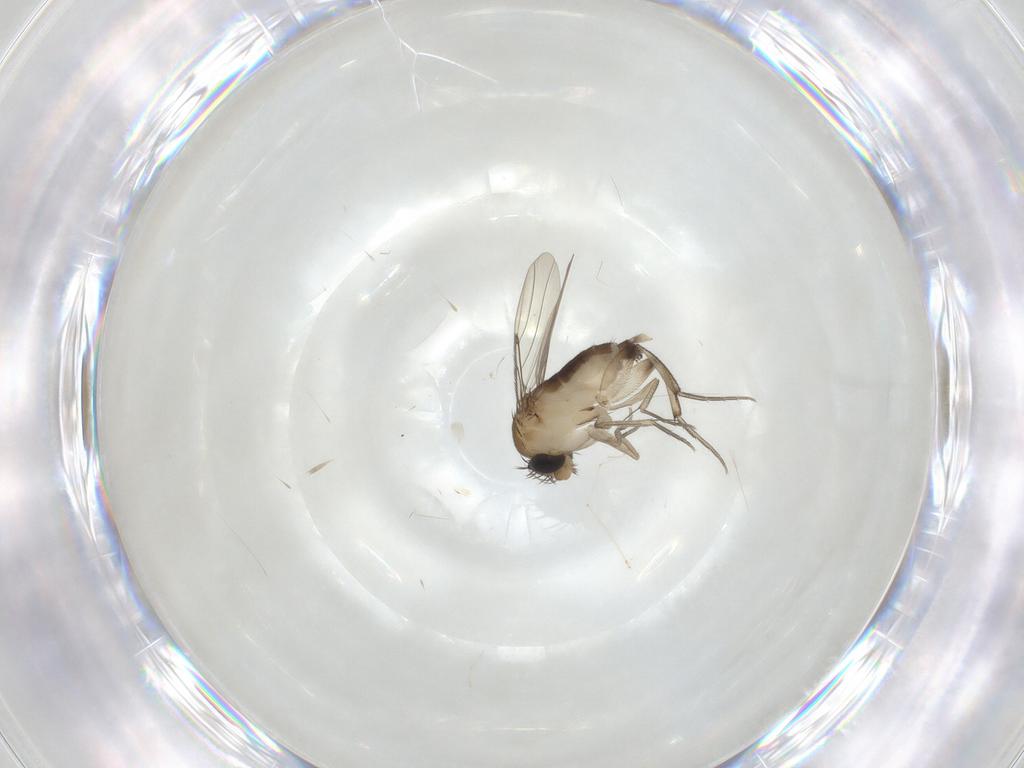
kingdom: Animalia
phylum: Arthropoda
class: Insecta
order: Diptera
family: Phoridae
